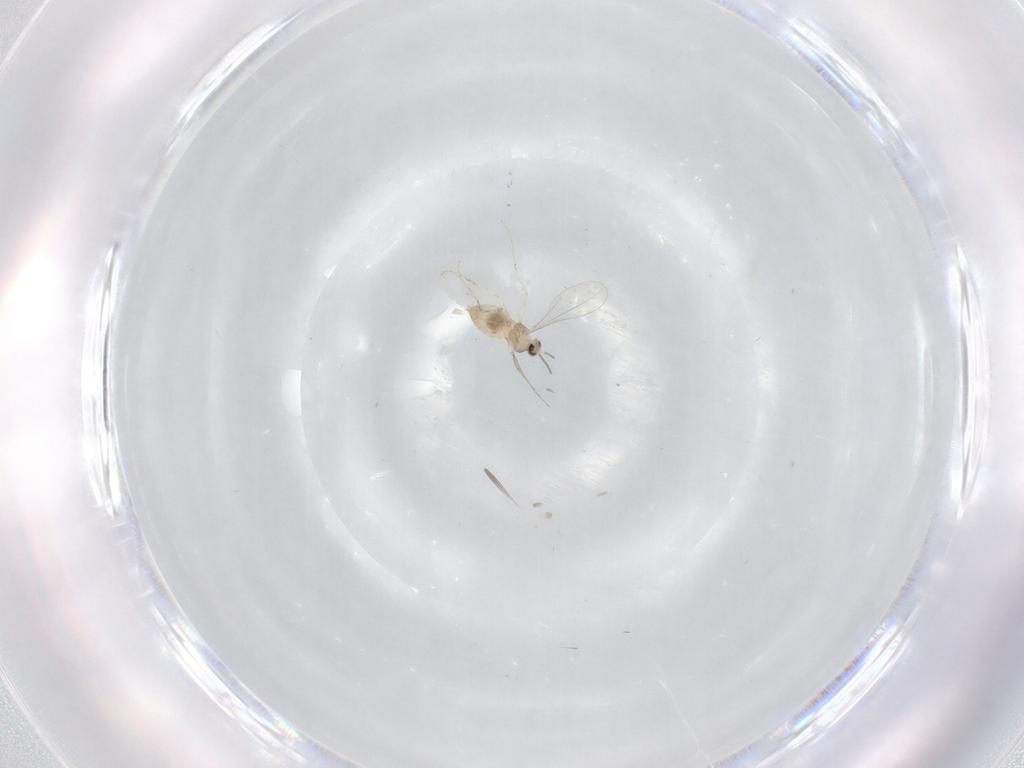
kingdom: Animalia
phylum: Arthropoda
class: Insecta
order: Diptera
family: Cecidomyiidae
